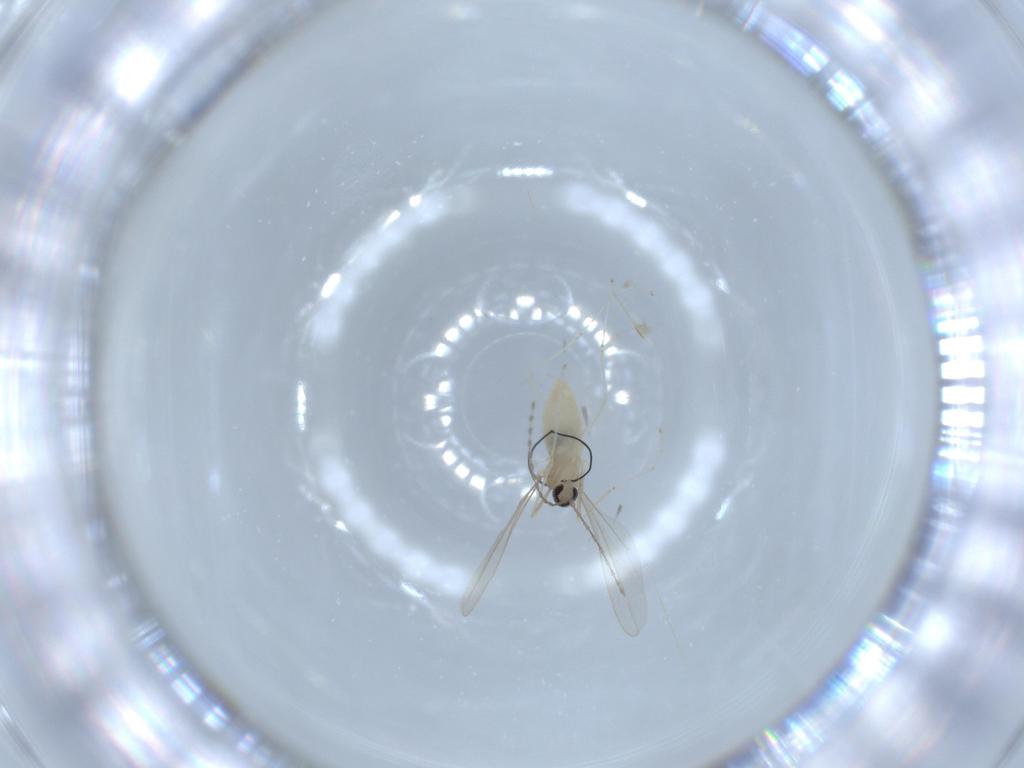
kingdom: Animalia
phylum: Arthropoda
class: Insecta
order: Diptera
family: Cecidomyiidae
